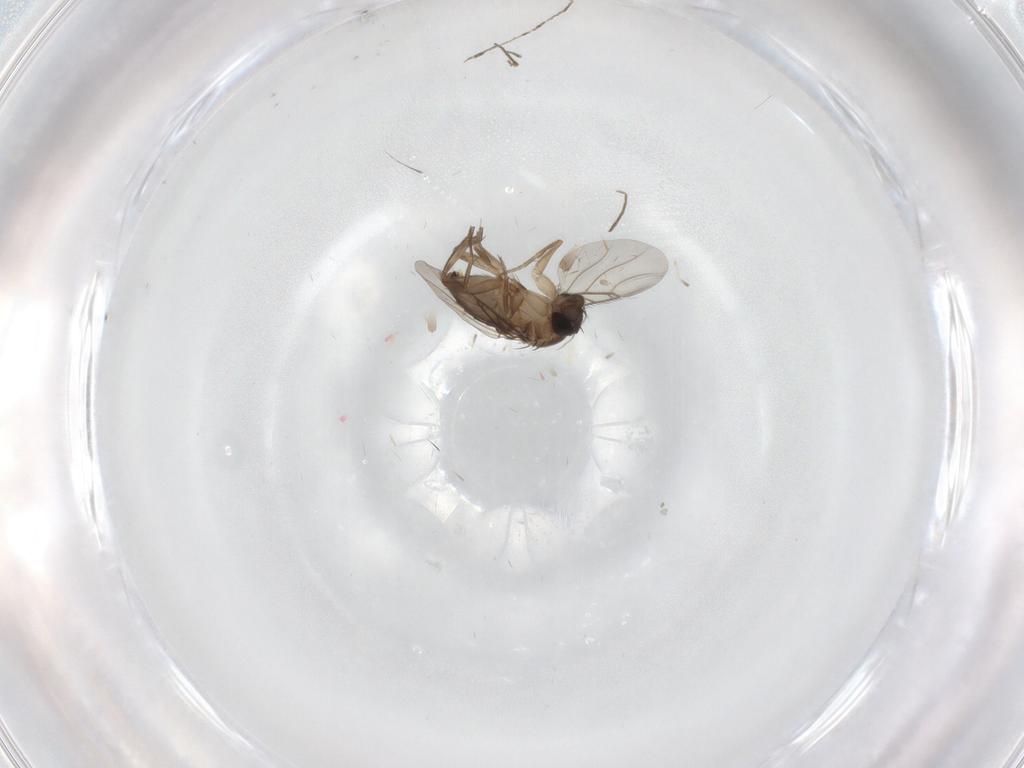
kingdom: Animalia
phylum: Arthropoda
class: Insecta
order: Diptera
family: Phoridae
